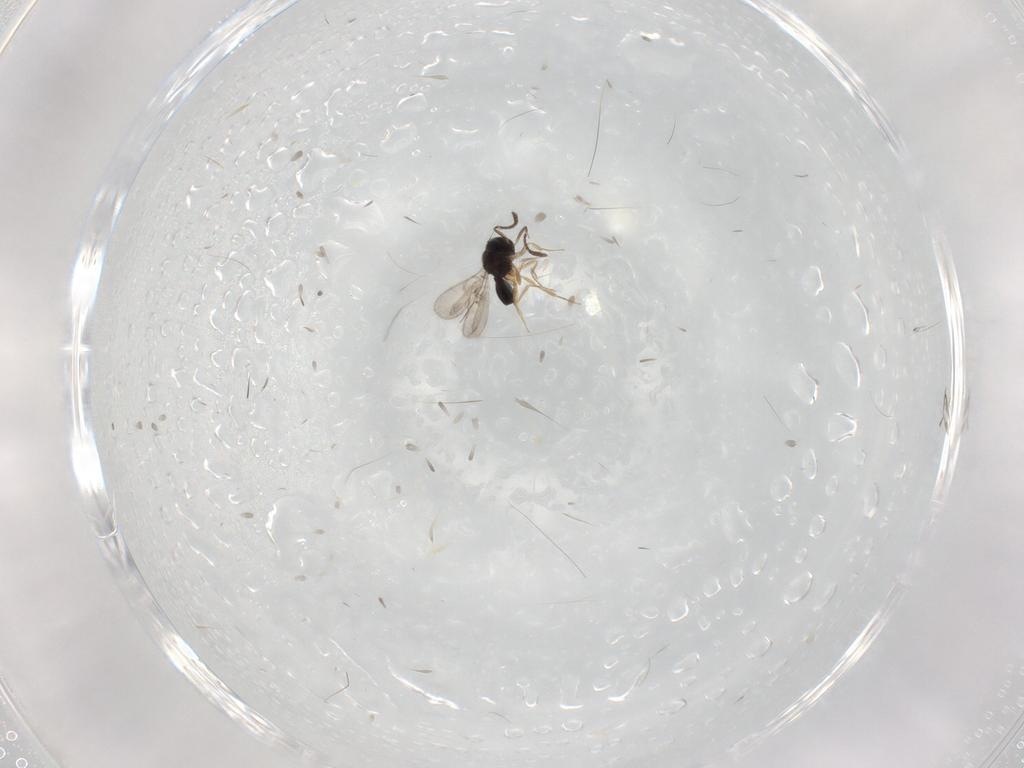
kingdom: Animalia
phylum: Arthropoda
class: Insecta
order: Hymenoptera
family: Scelionidae
